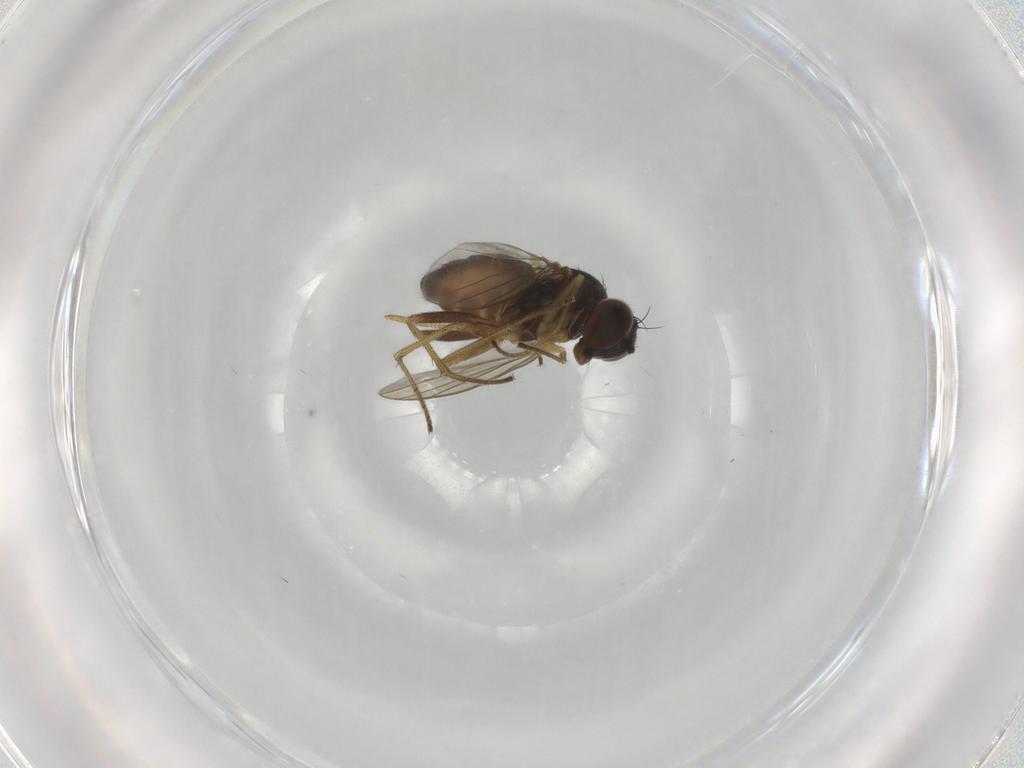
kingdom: Animalia
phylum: Arthropoda
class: Insecta
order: Diptera
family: Dolichopodidae
